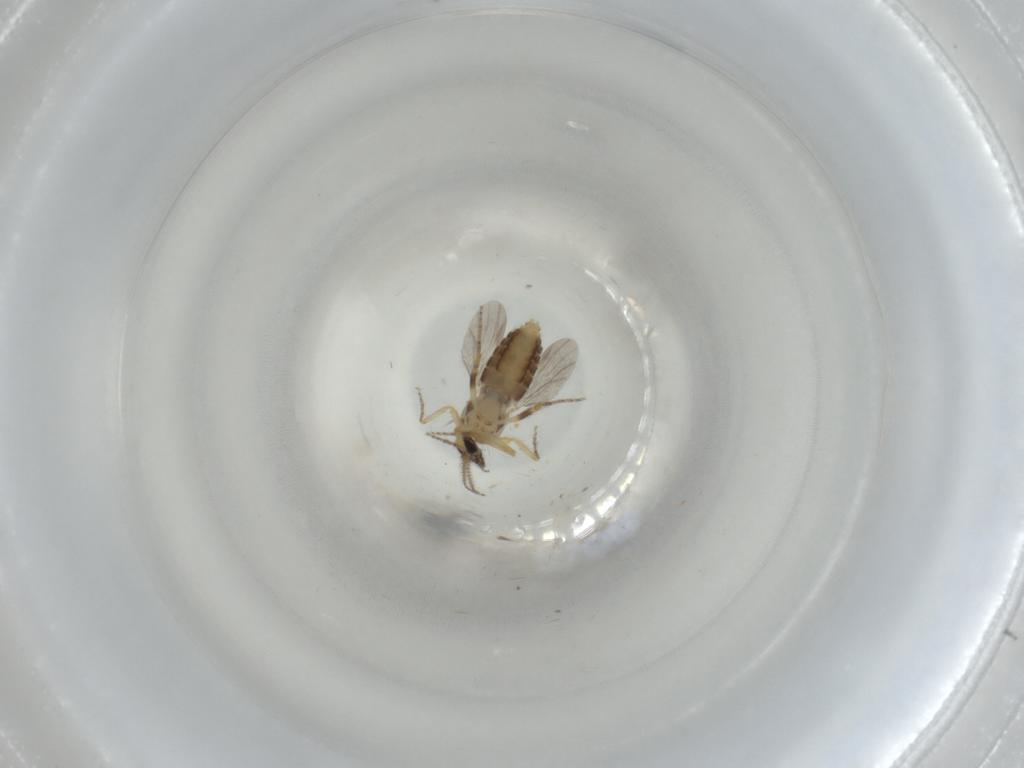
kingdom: Animalia
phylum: Arthropoda
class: Insecta
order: Diptera
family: Ceratopogonidae
